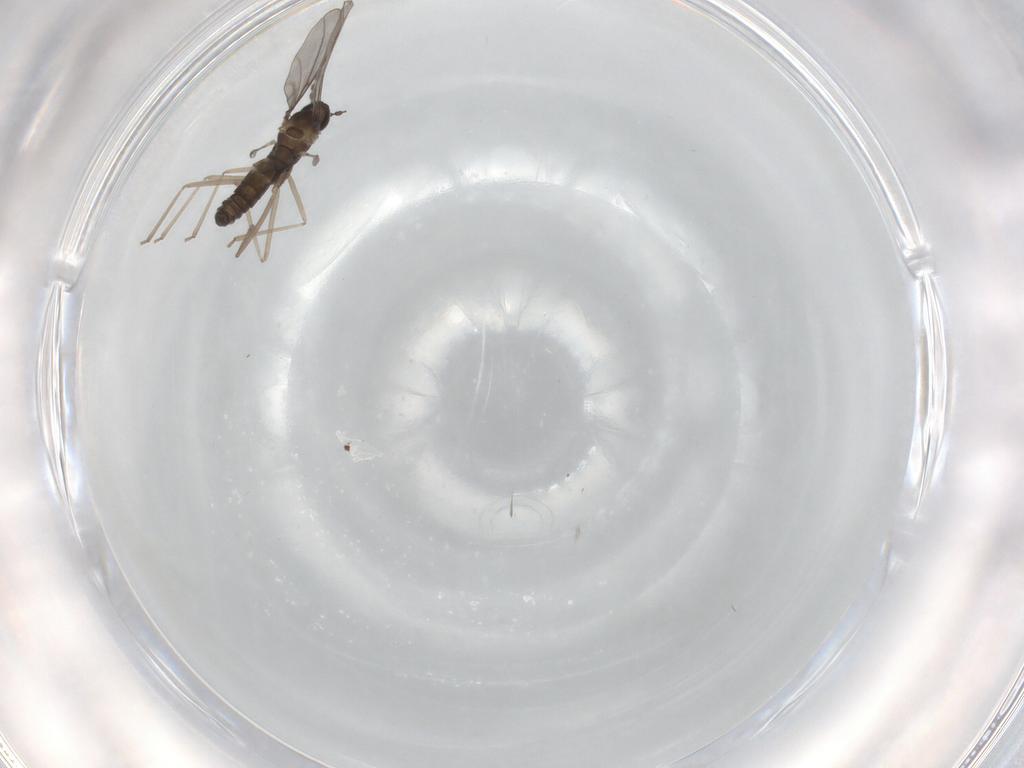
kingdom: Animalia
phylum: Arthropoda
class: Insecta
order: Diptera
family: Cecidomyiidae
